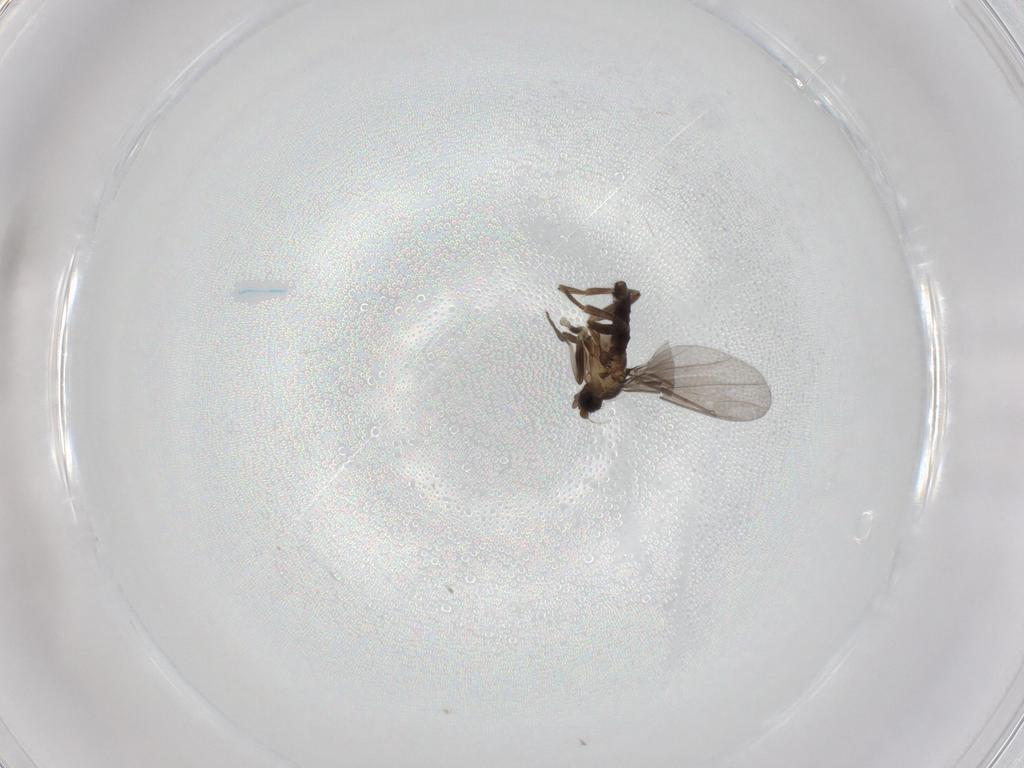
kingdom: Animalia
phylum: Arthropoda
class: Insecta
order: Diptera
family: Phoridae
